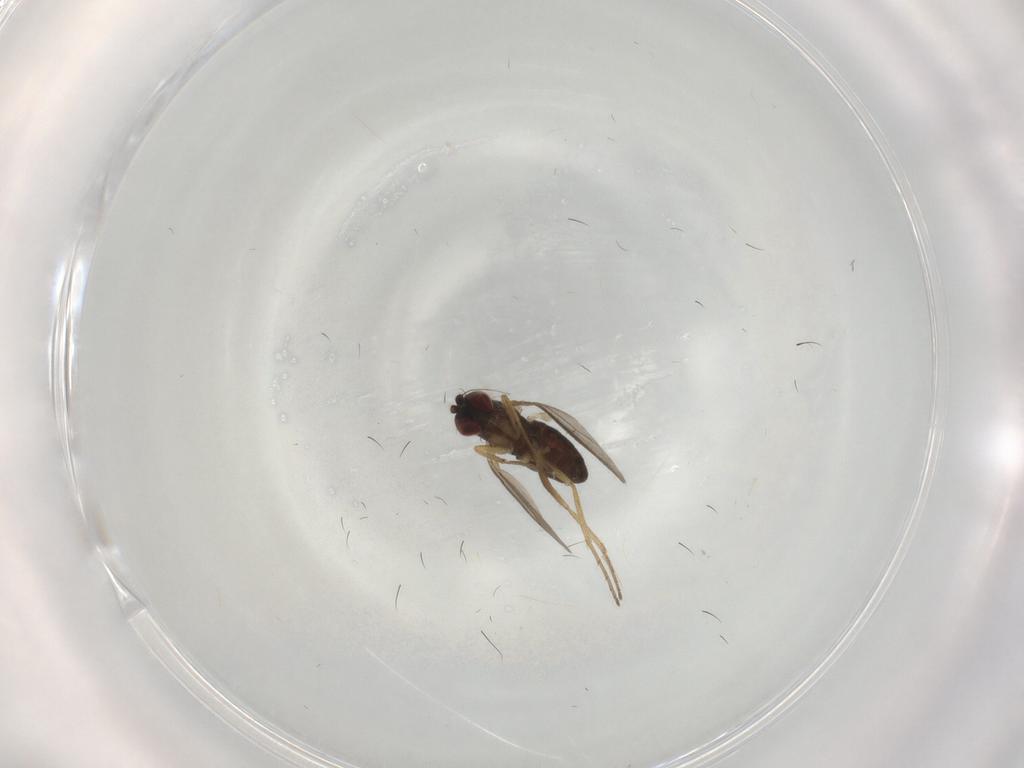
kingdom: Animalia
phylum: Arthropoda
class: Insecta
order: Diptera
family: Dolichopodidae
